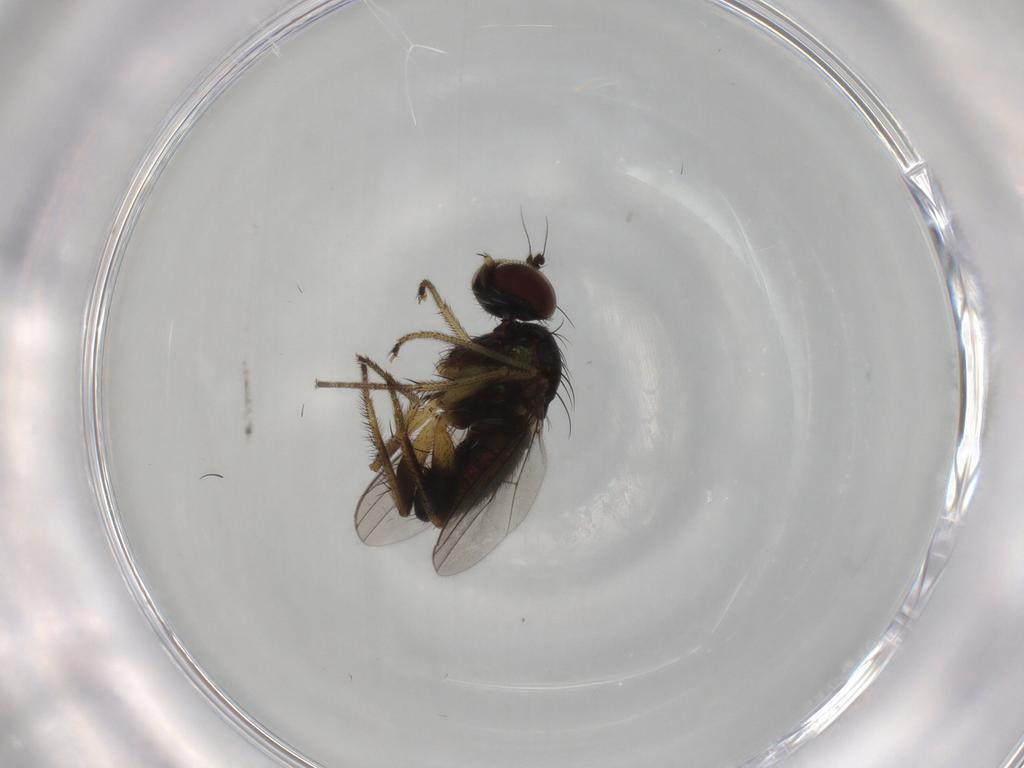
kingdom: Animalia
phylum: Arthropoda
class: Insecta
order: Diptera
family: Dolichopodidae
